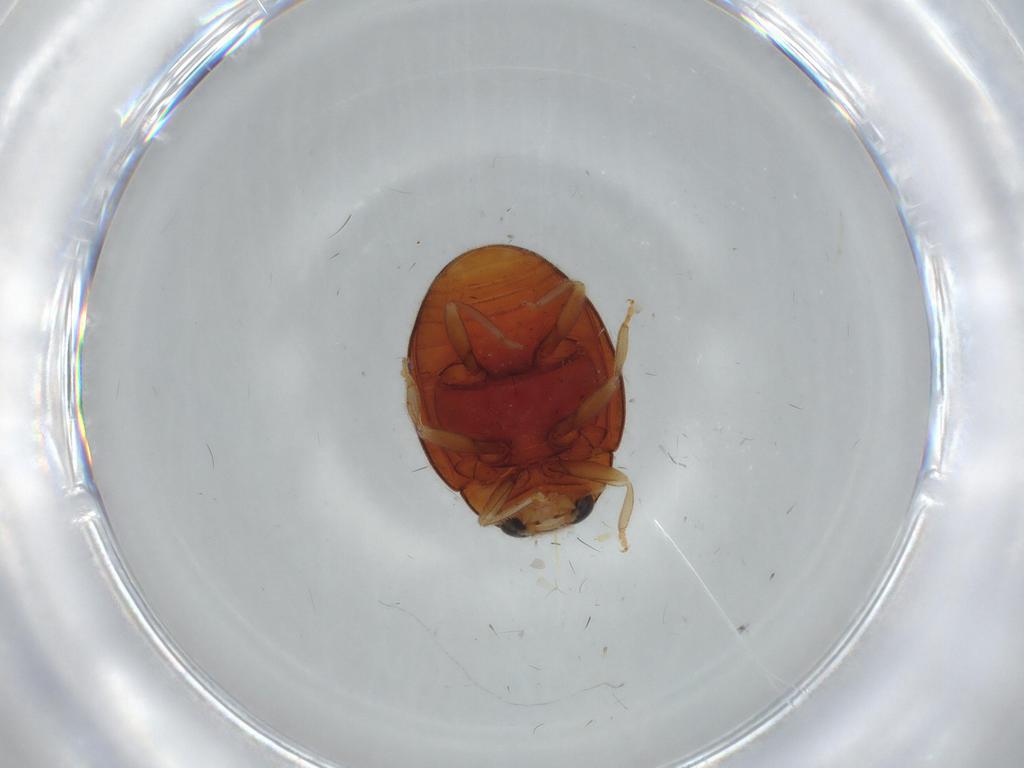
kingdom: Animalia
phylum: Arthropoda
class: Insecta
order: Coleoptera
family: Coccinellidae
